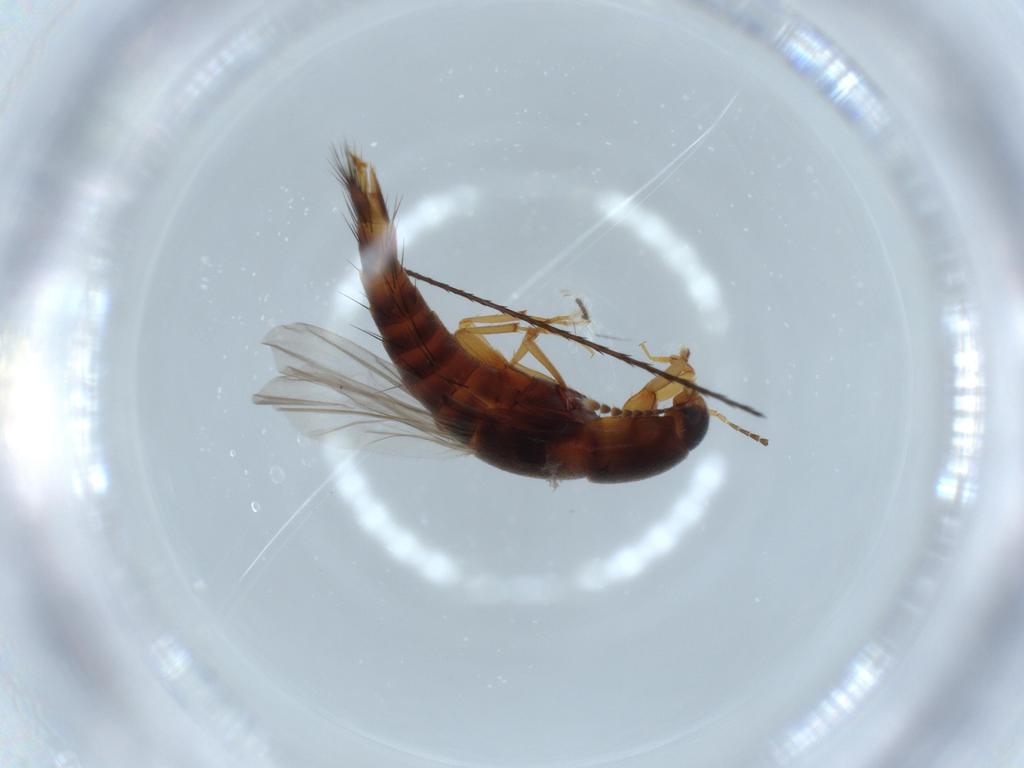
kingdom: Animalia
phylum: Arthropoda
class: Insecta
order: Coleoptera
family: Staphylinidae
